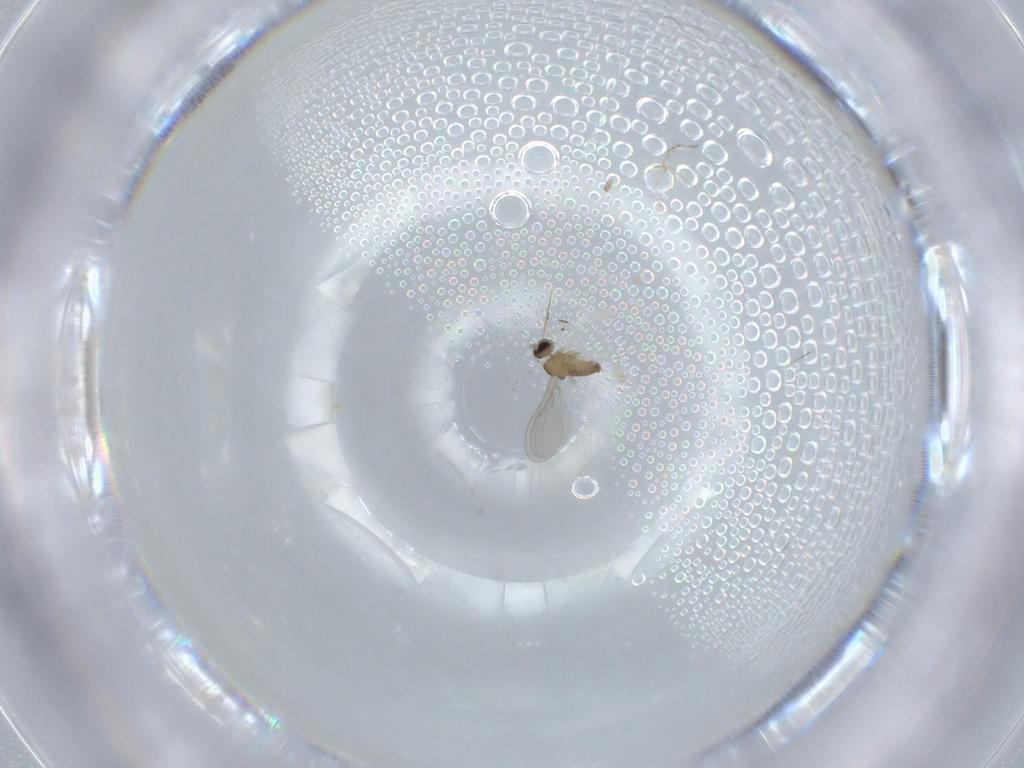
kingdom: Animalia
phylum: Arthropoda
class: Insecta
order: Diptera
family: Cecidomyiidae
